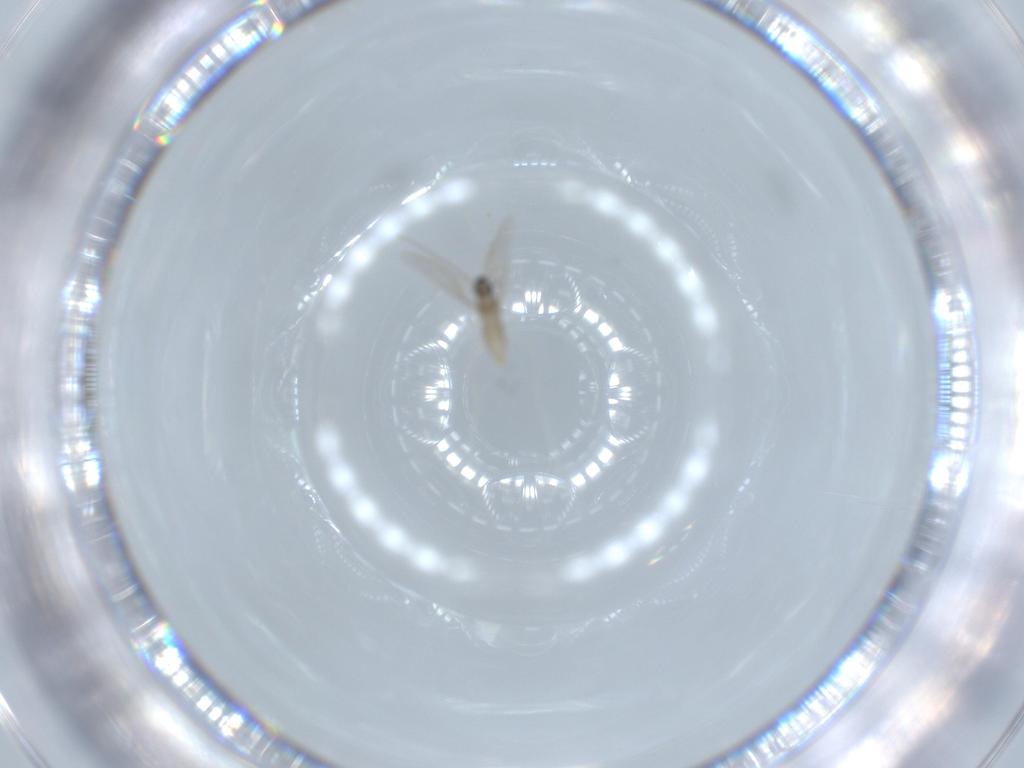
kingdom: Animalia
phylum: Arthropoda
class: Insecta
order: Diptera
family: Cecidomyiidae
